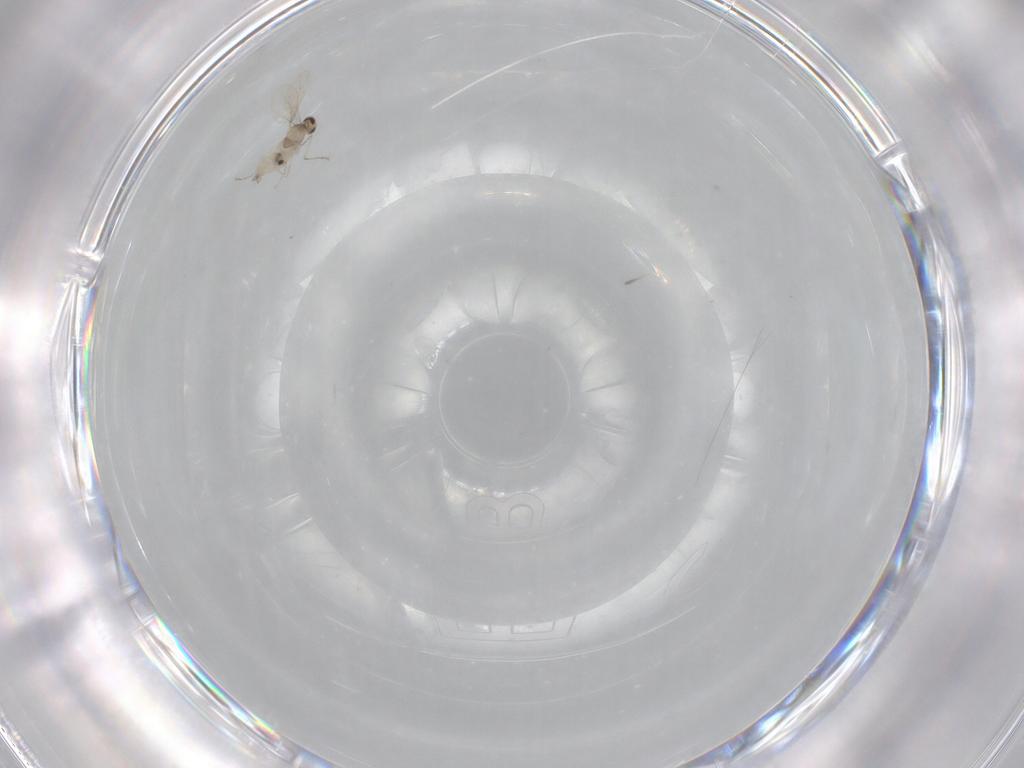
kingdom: Animalia
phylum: Arthropoda
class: Insecta
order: Diptera
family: Cecidomyiidae
